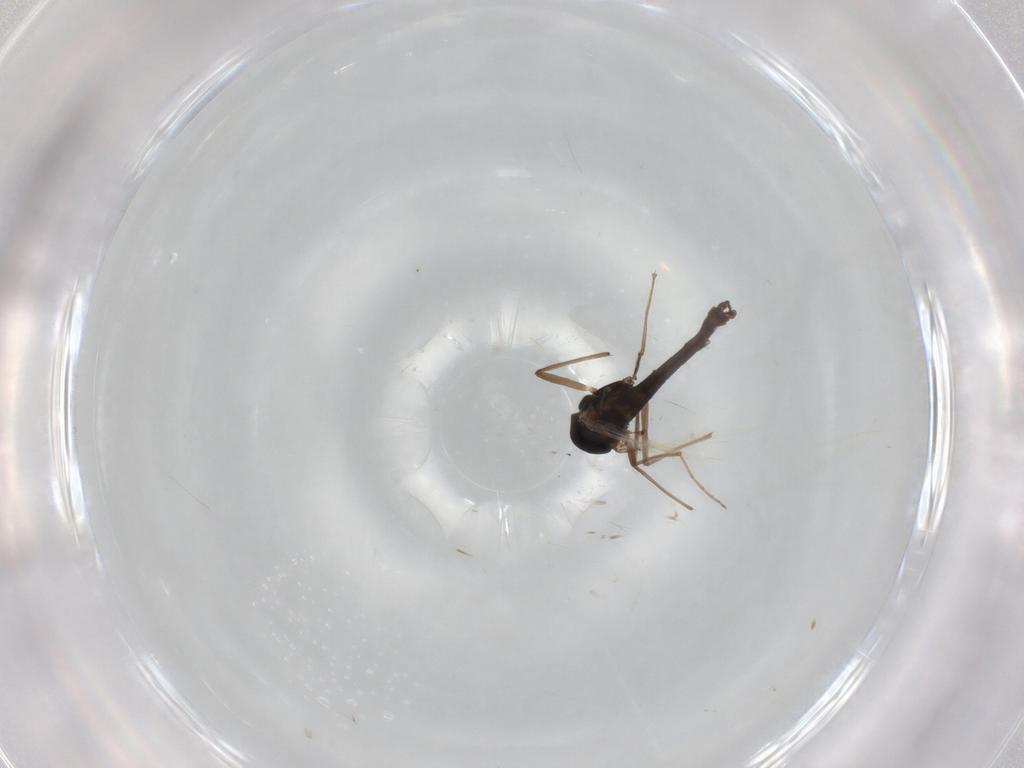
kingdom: Animalia
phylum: Arthropoda
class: Insecta
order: Diptera
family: Chironomidae
